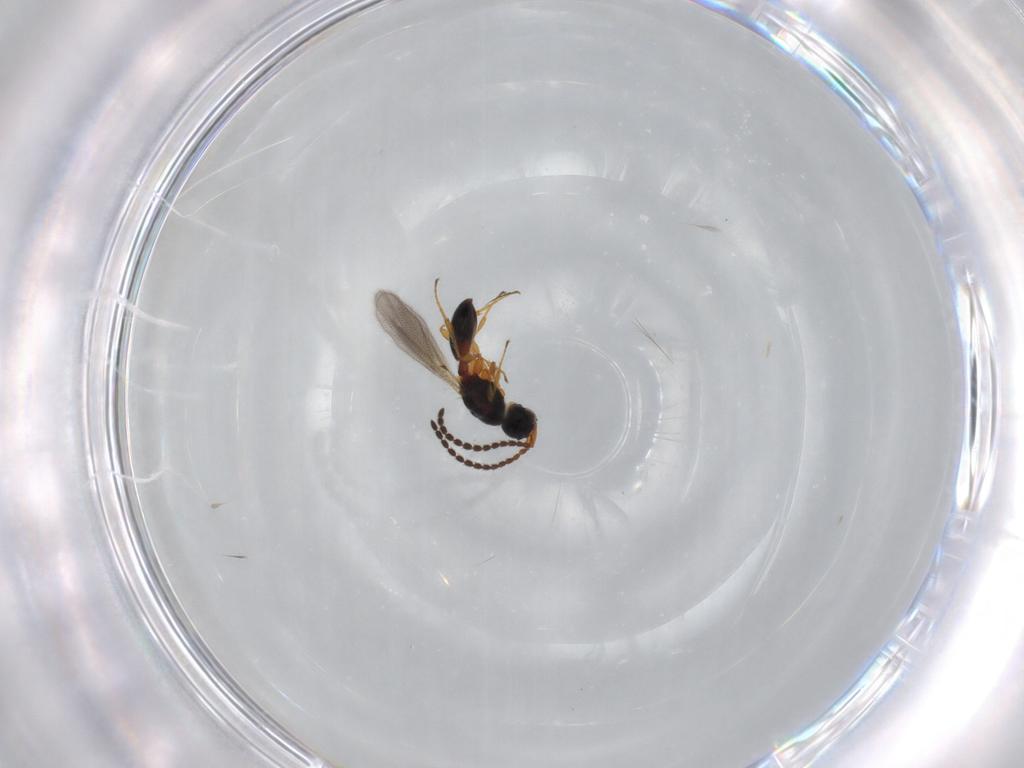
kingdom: Animalia
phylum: Arthropoda
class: Insecta
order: Hymenoptera
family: Diapriidae
